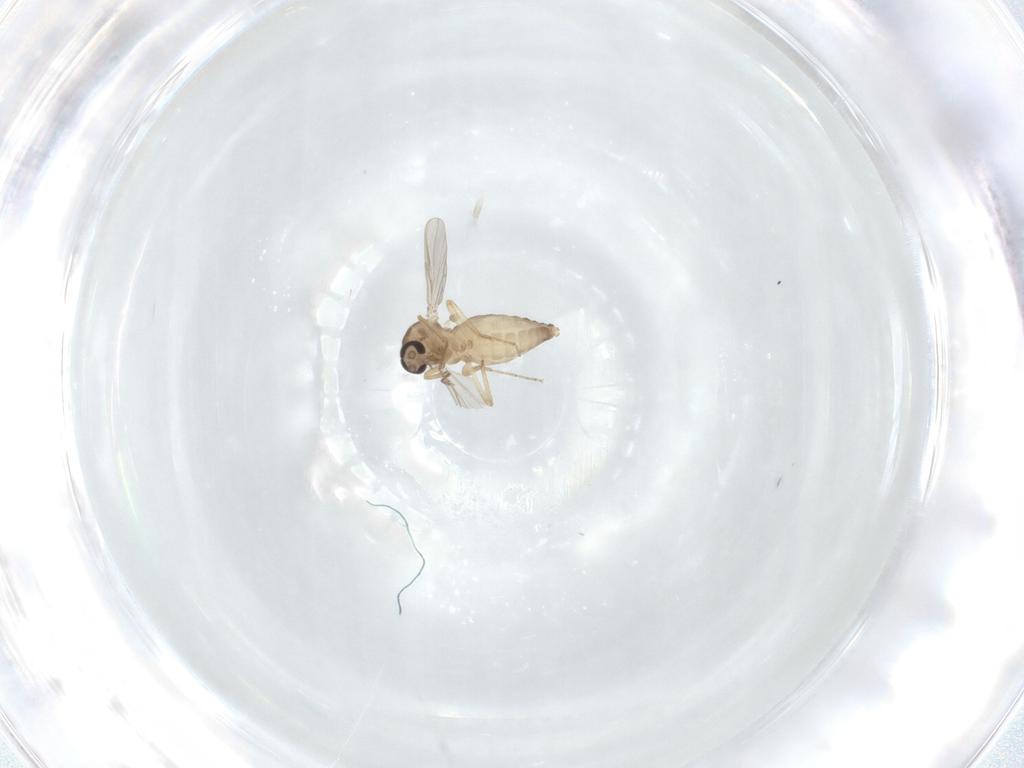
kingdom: Animalia
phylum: Arthropoda
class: Insecta
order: Diptera
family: Ceratopogonidae
